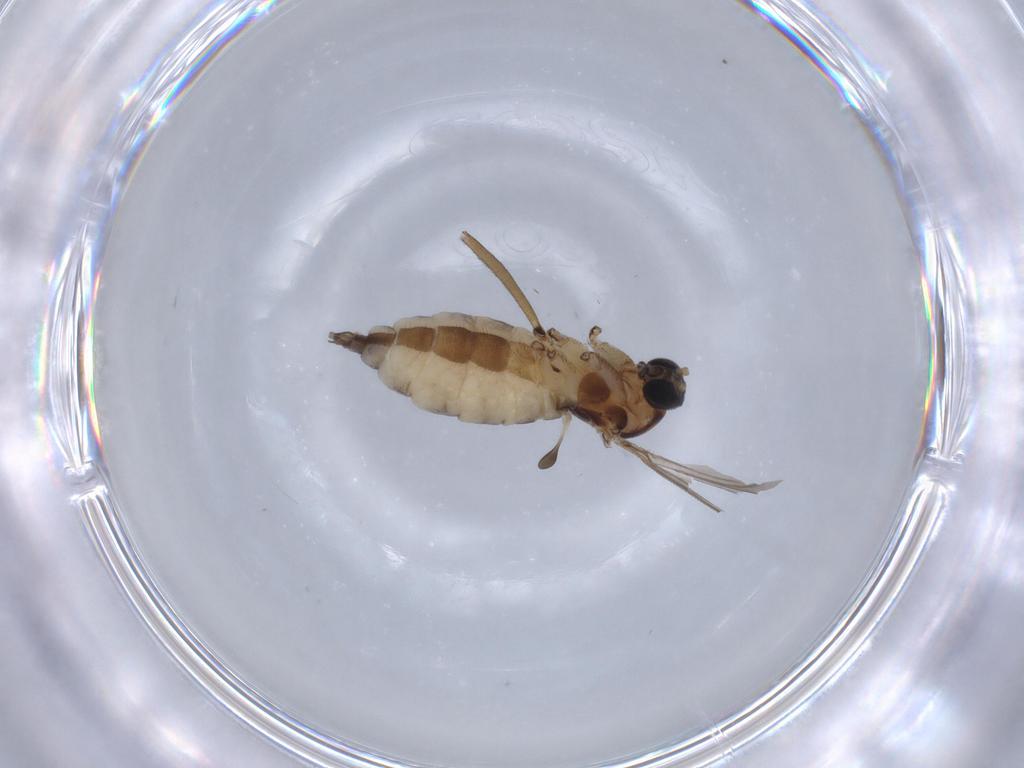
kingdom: Animalia
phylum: Arthropoda
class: Insecta
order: Diptera
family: Sciaridae
